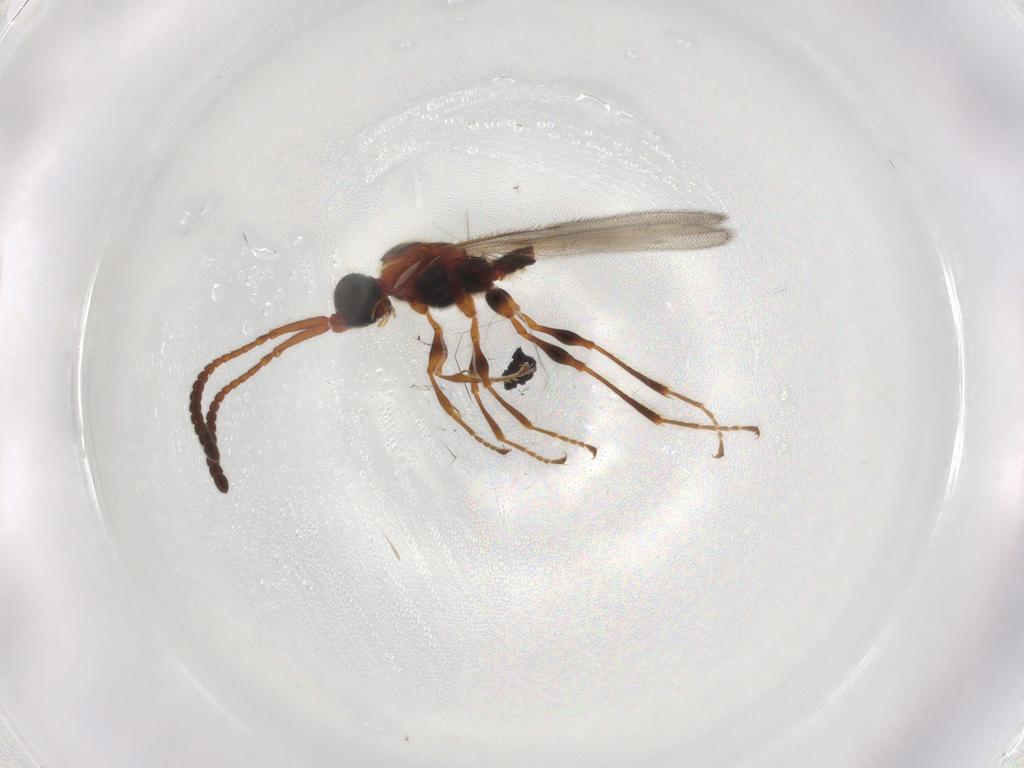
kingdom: Animalia
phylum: Arthropoda
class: Insecta
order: Hymenoptera
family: Diapriidae
